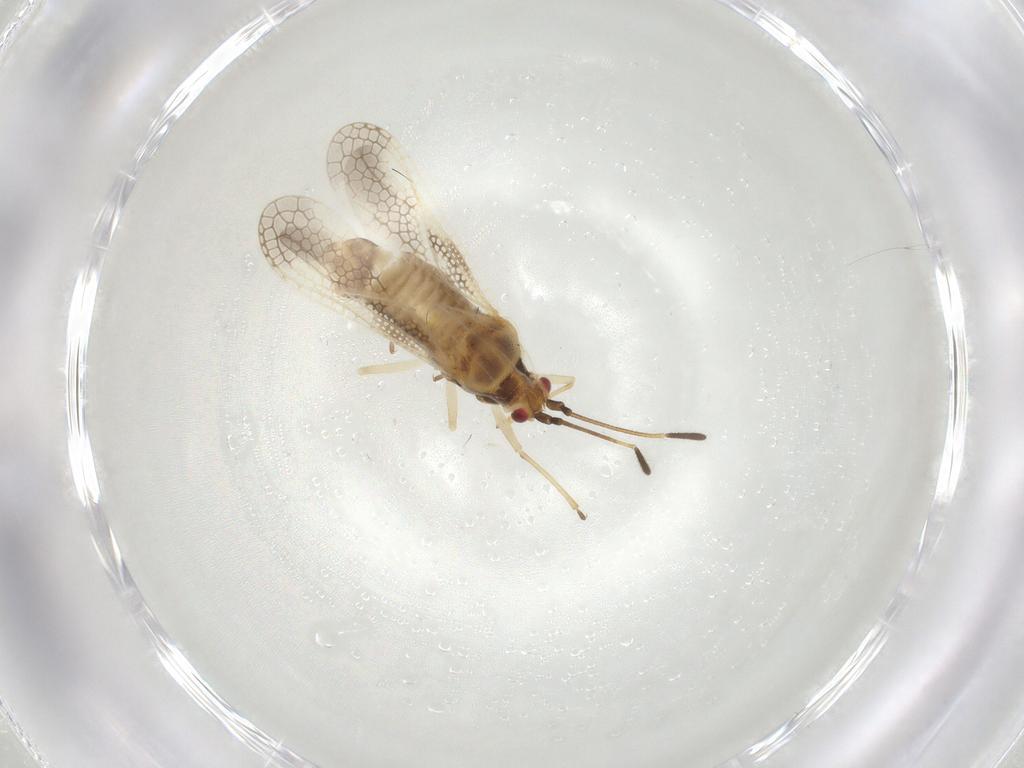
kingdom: Animalia
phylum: Arthropoda
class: Insecta
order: Hemiptera
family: Tingidae
